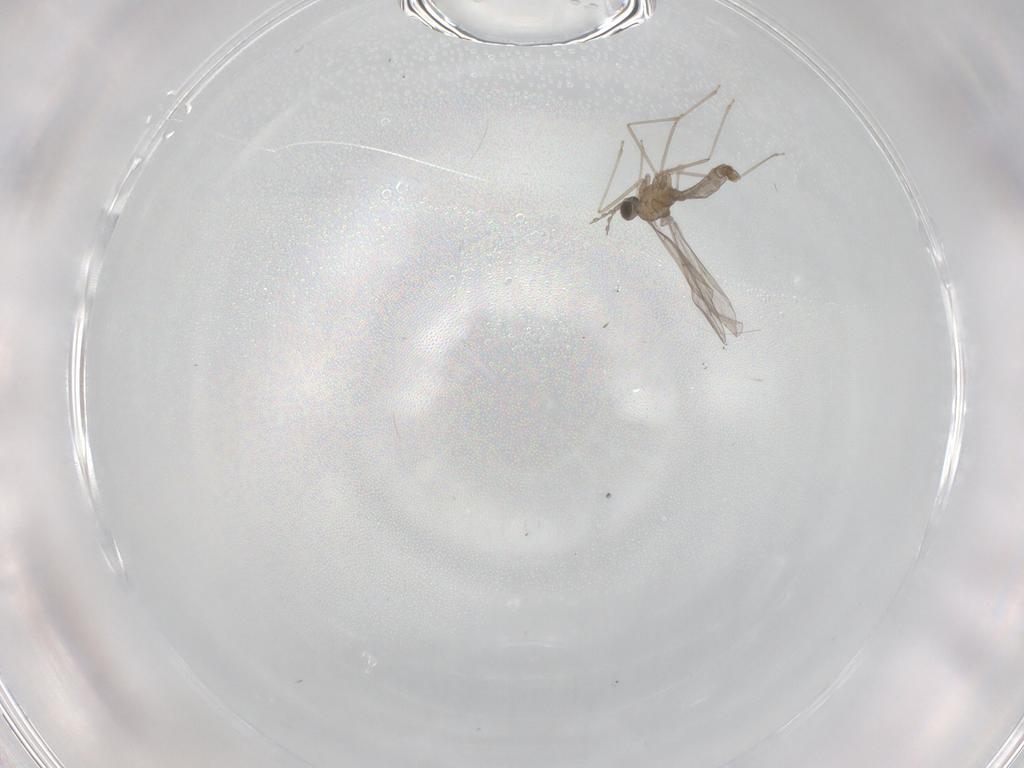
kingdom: Animalia
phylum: Arthropoda
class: Insecta
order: Diptera
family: Cecidomyiidae
